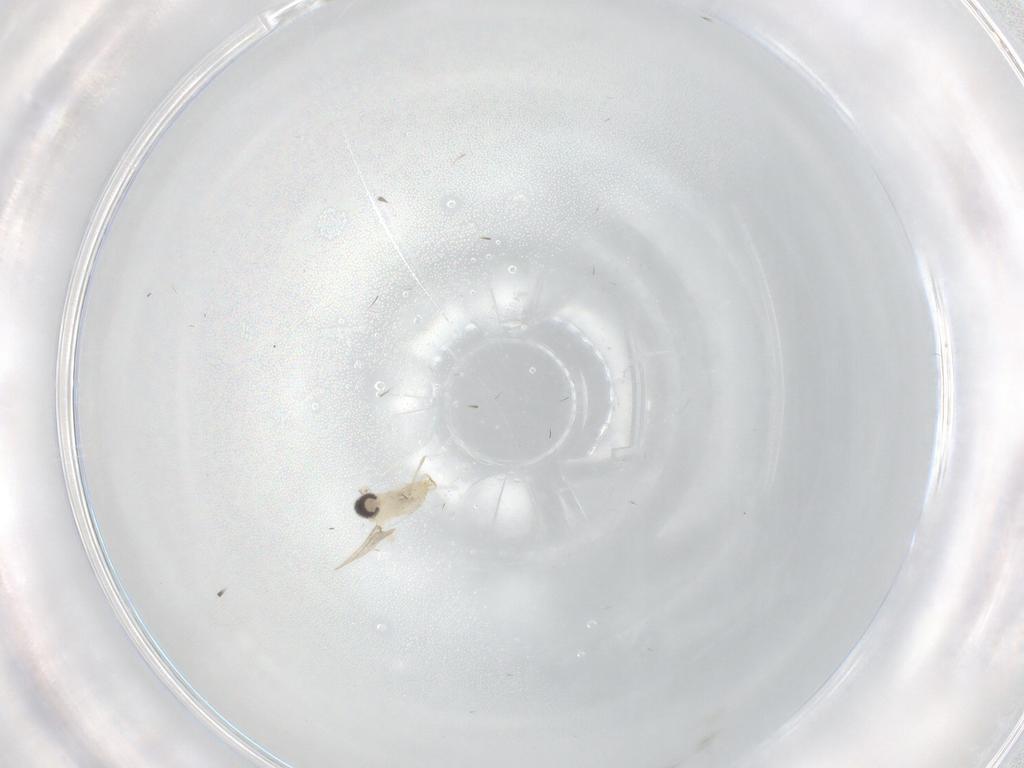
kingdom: Animalia
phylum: Arthropoda
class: Insecta
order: Diptera
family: Cecidomyiidae
